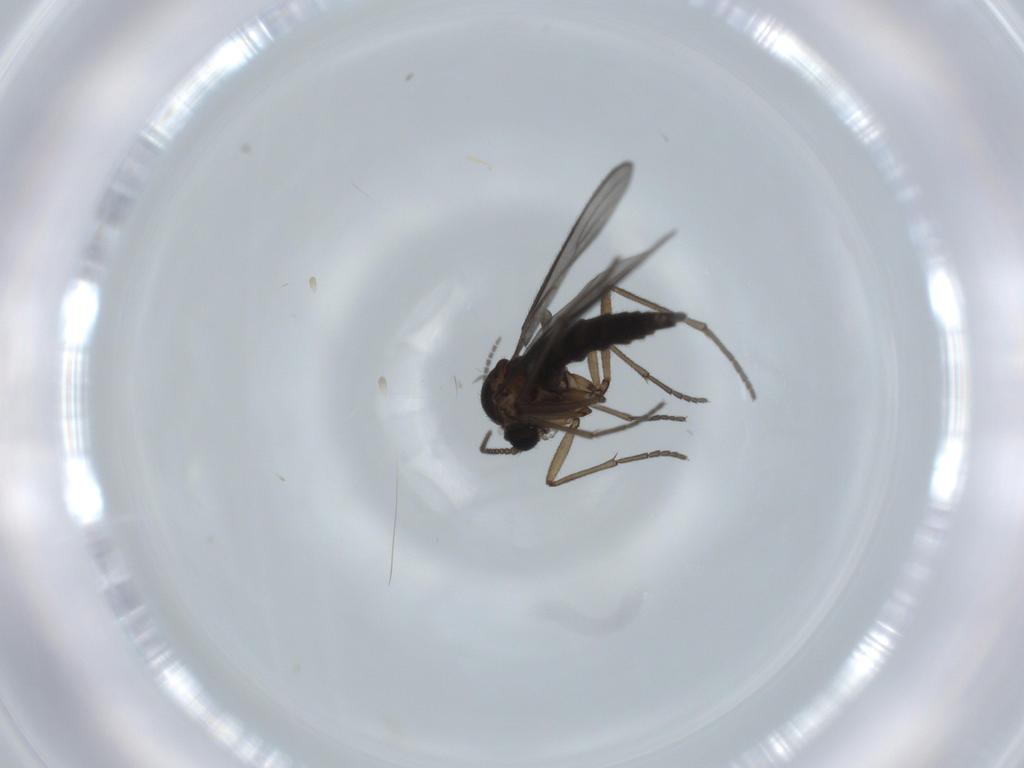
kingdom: Animalia
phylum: Arthropoda
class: Insecta
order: Diptera
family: Sciaridae
